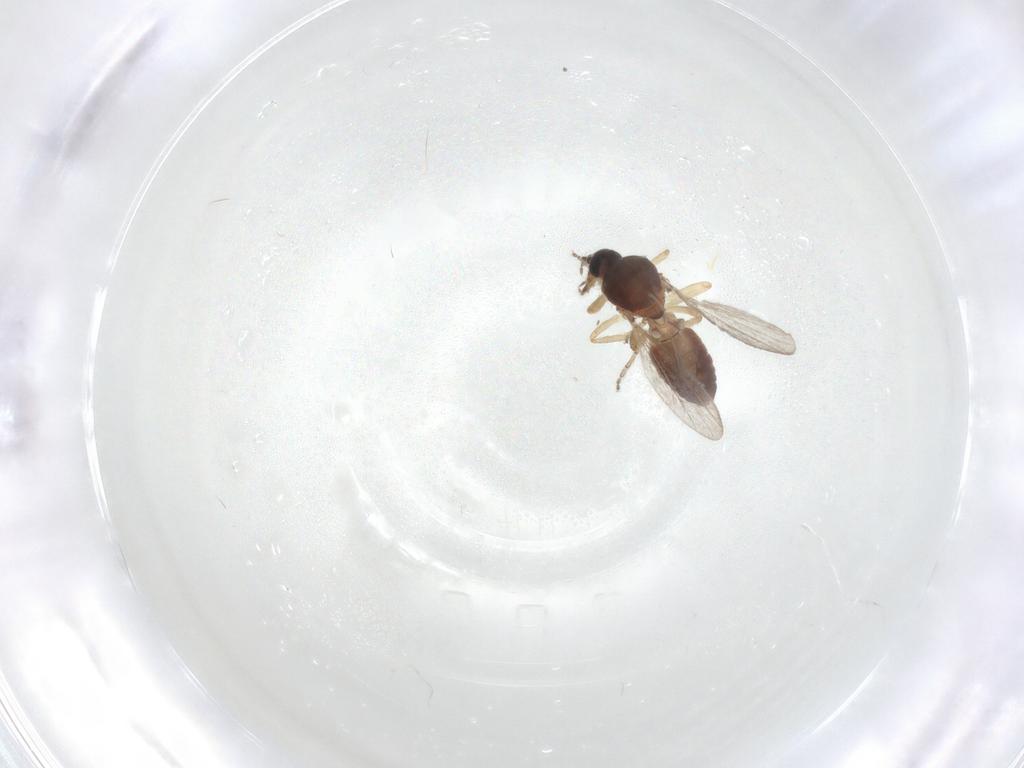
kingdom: Animalia
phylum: Arthropoda
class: Insecta
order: Diptera
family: Ceratopogonidae
